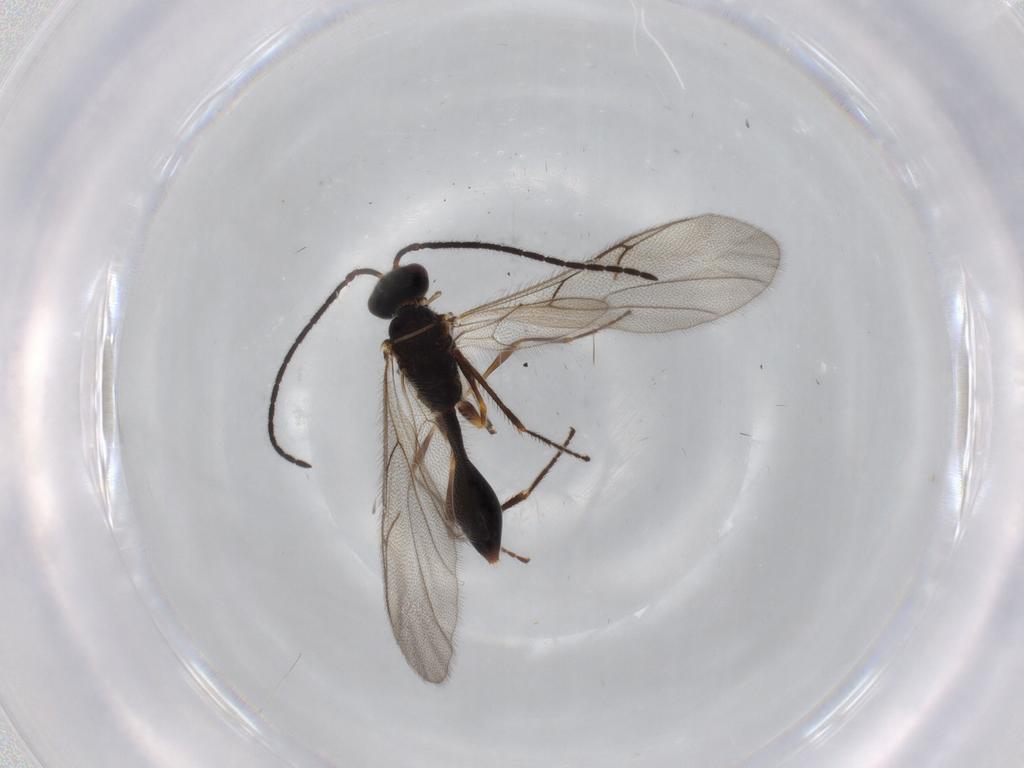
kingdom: Animalia
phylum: Arthropoda
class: Insecta
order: Hymenoptera
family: Diapriidae
